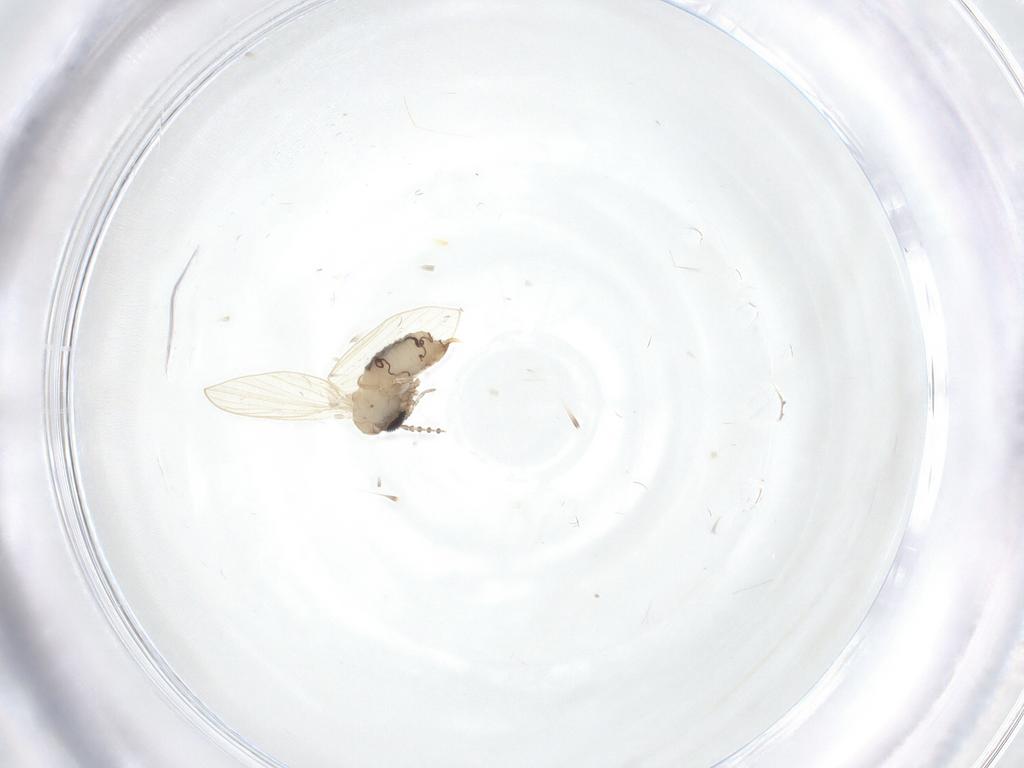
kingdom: Animalia
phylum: Arthropoda
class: Insecta
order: Diptera
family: Psychodidae
